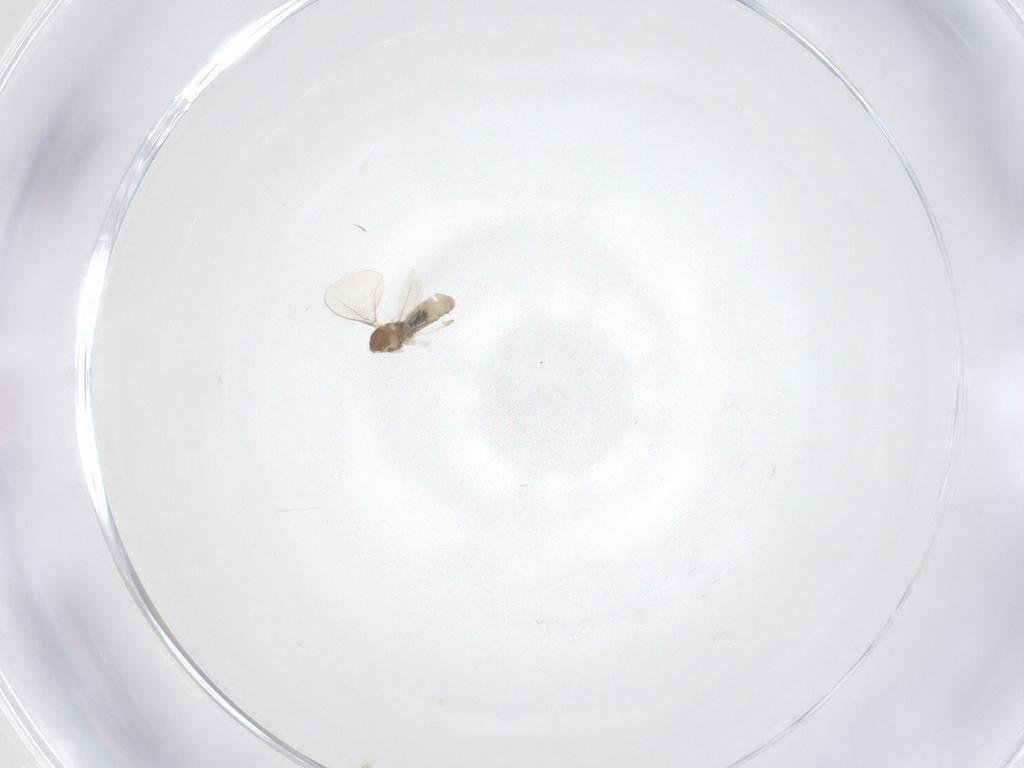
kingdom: Animalia
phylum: Arthropoda
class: Insecta
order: Diptera
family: Cecidomyiidae
